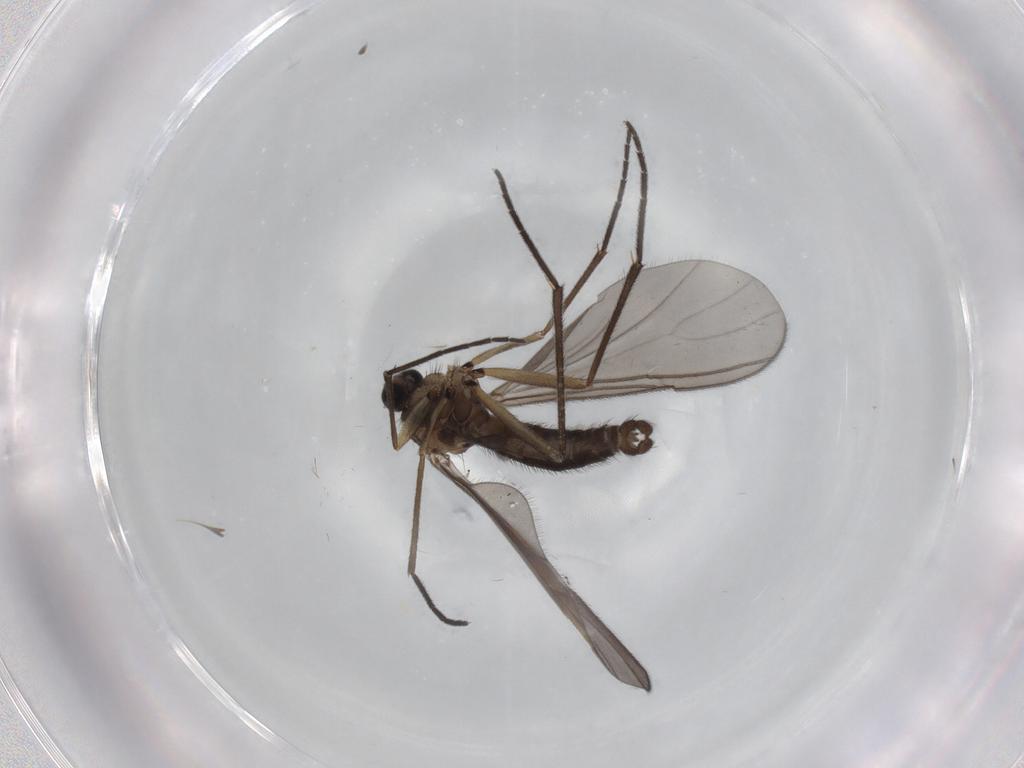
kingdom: Animalia
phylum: Arthropoda
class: Insecta
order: Diptera
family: Sciaridae
